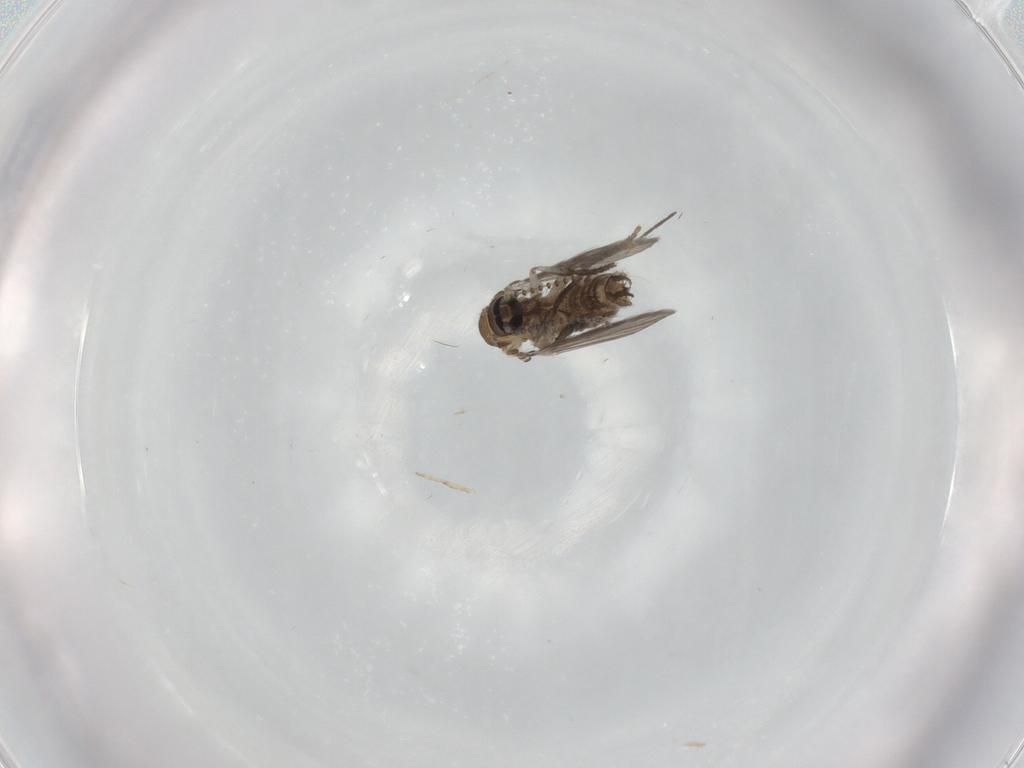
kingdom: Animalia
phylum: Arthropoda
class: Insecta
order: Diptera
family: Psychodidae
